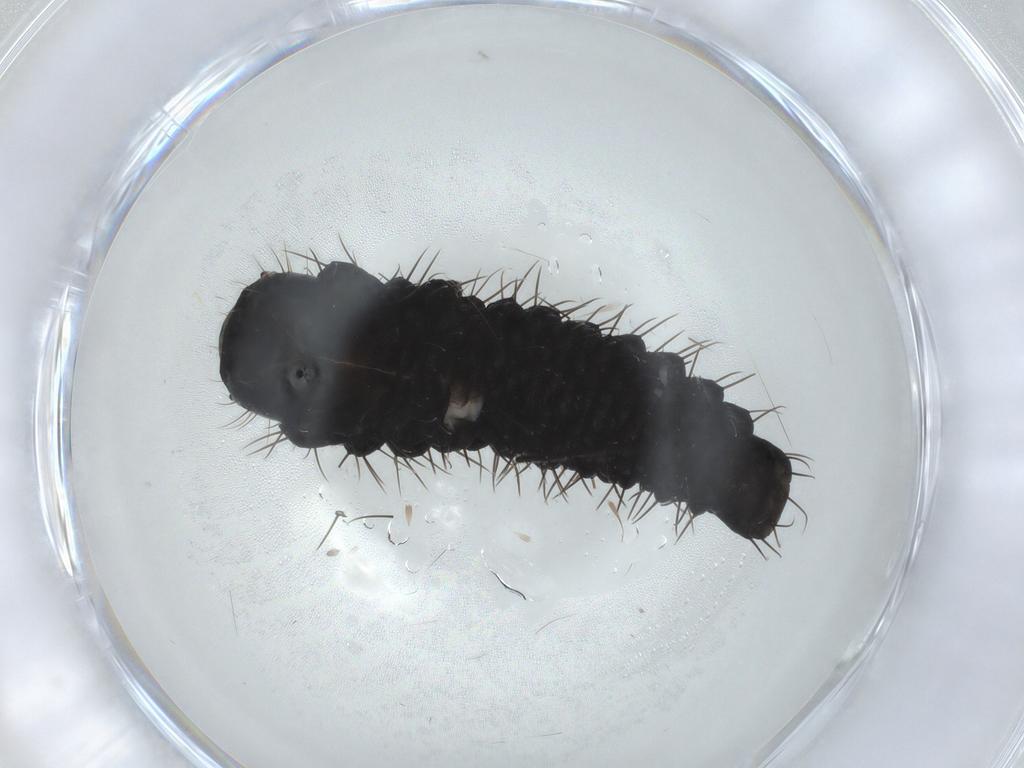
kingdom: Animalia
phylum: Arthropoda
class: Insecta
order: Coleoptera
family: Chrysomelidae
